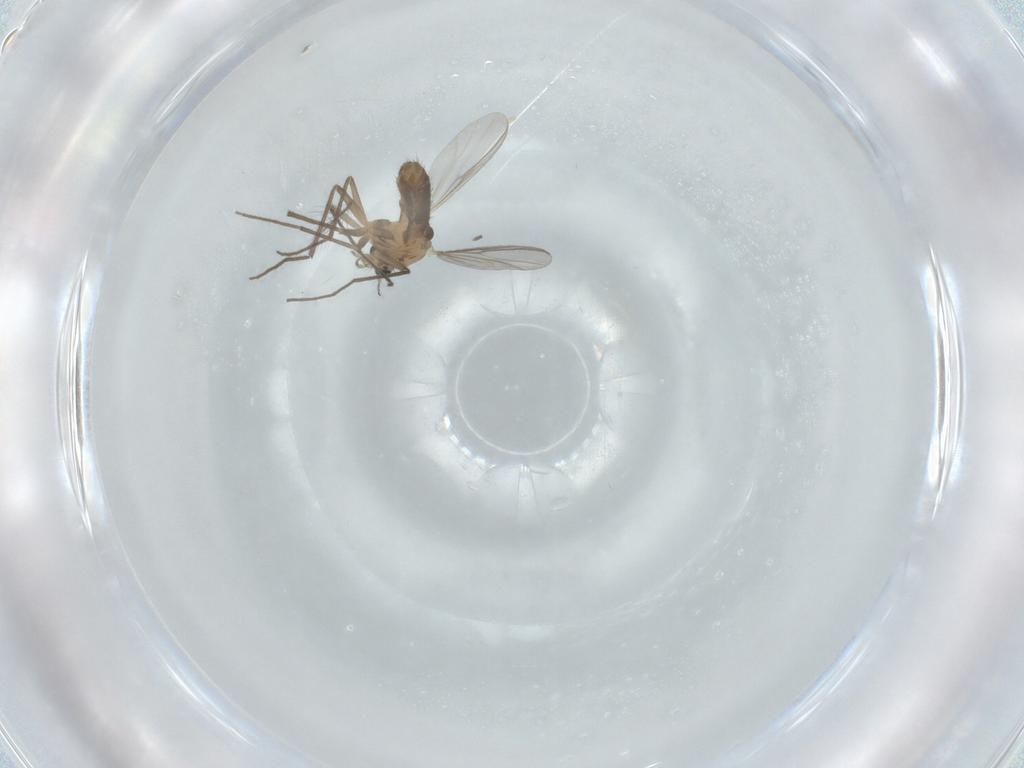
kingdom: Animalia
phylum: Arthropoda
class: Insecta
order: Diptera
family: Chironomidae
